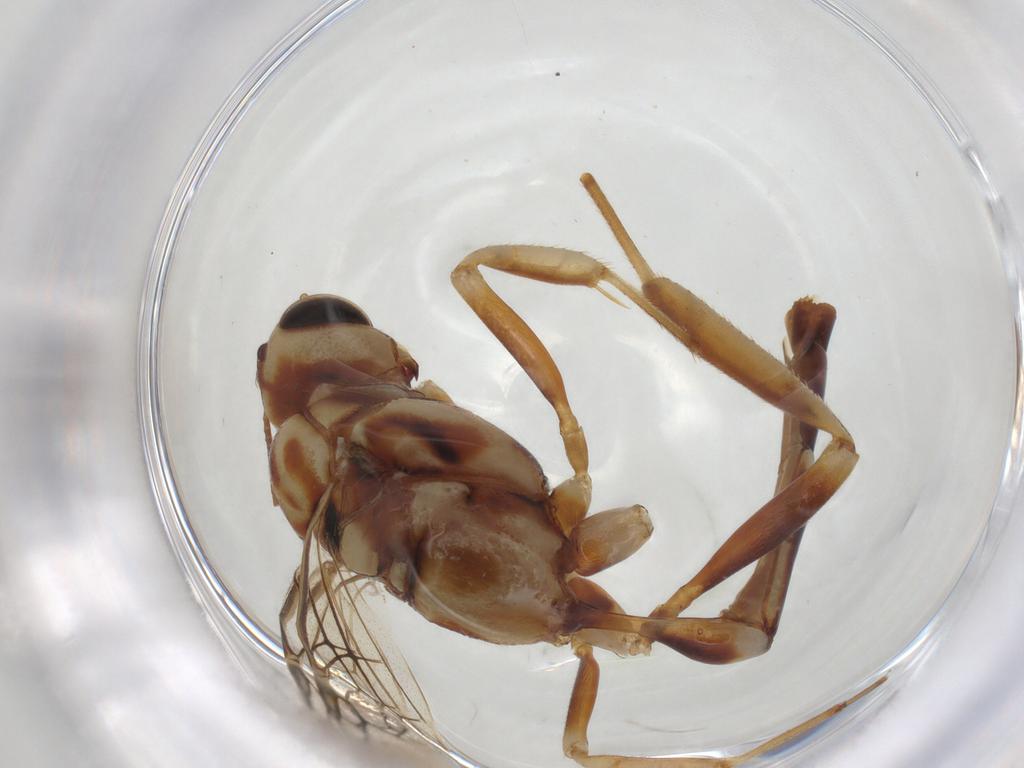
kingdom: Animalia
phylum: Arthropoda
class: Insecta
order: Hymenoptera
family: Ichneumonidae
